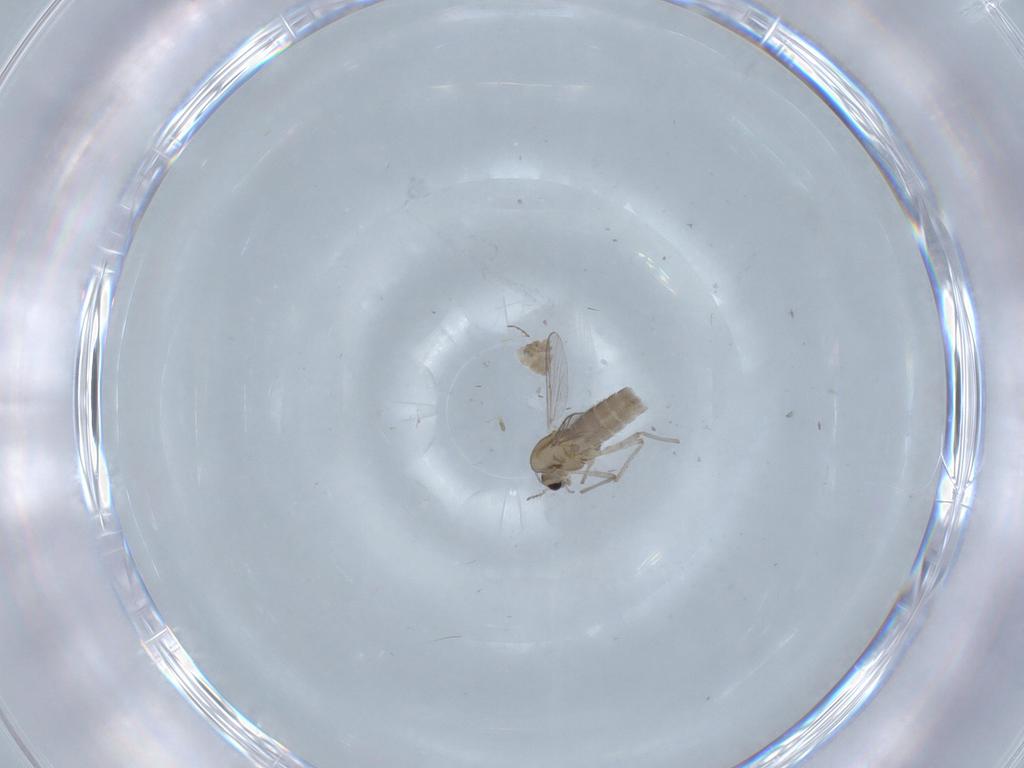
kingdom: Animalia
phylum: Arthropoda
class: Insecta
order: Diptera
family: Chironomidae
